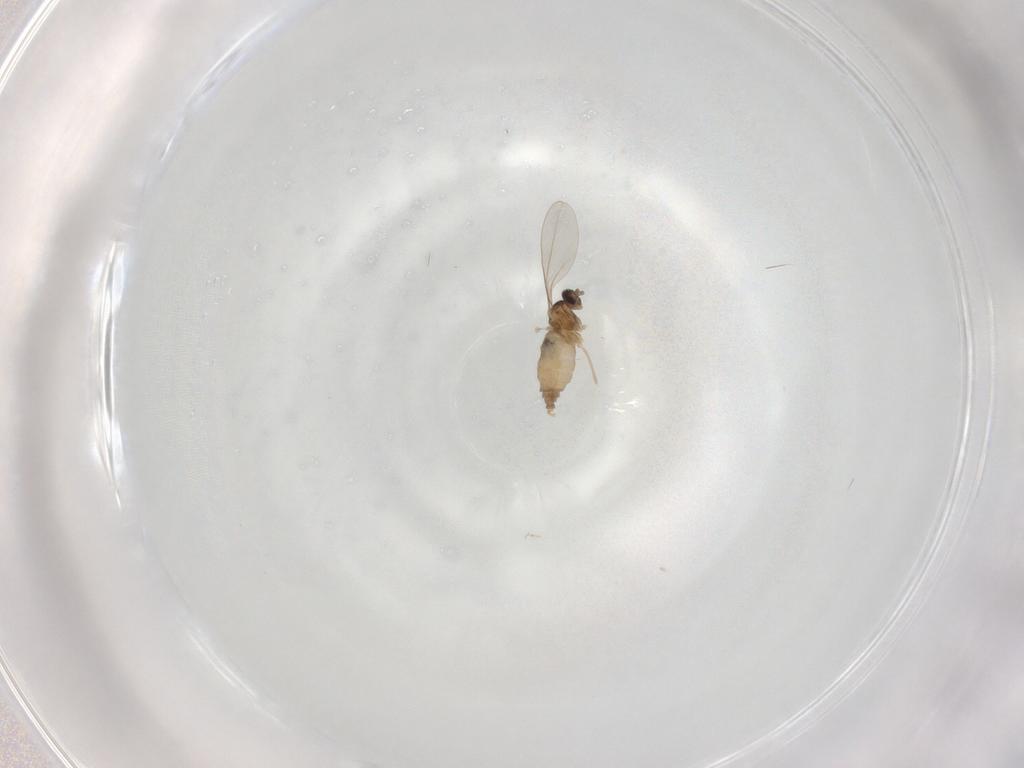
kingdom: Animalia
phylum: Arthropoda
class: Insecta
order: Diptera
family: Cecidomyiidae
